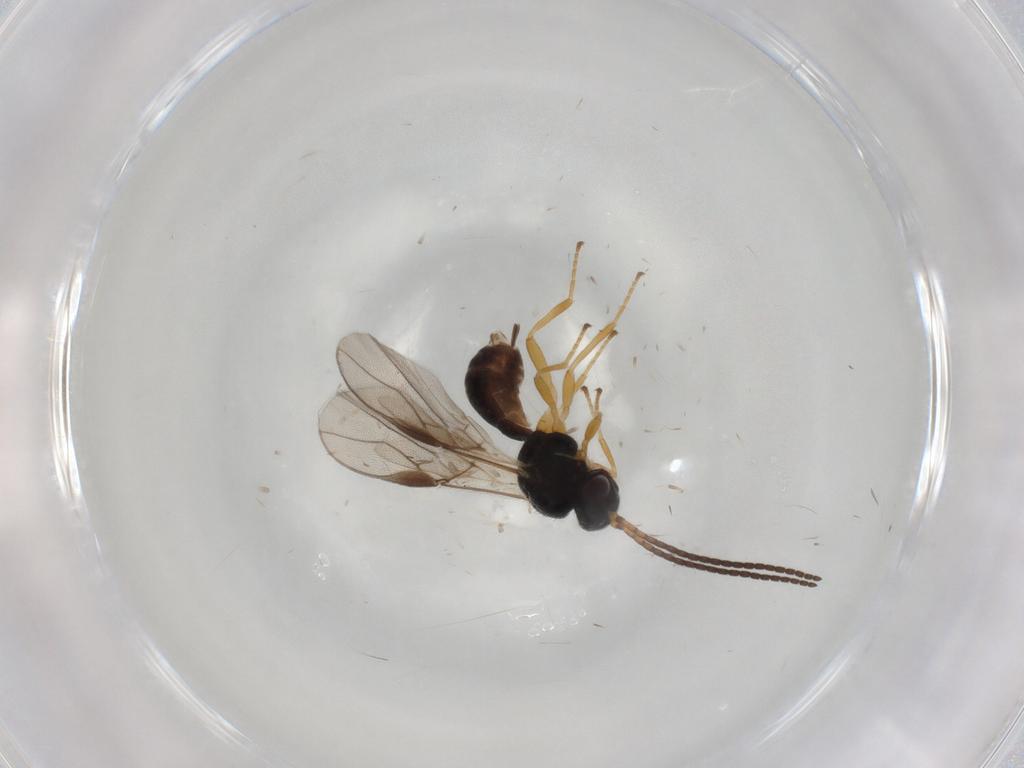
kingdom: Animalia
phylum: Arthropoda
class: Insecta
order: Hymenoptera
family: Braconidae
